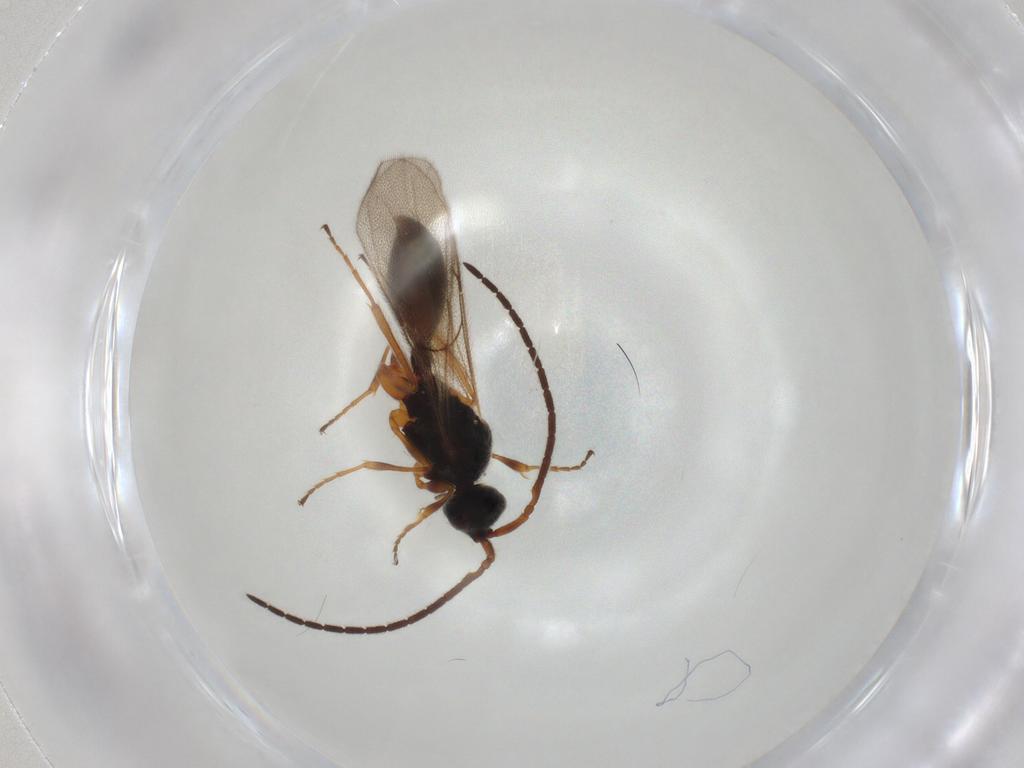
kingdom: Animalia
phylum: Arthropoda
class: Insecta
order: Hymenoptera
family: Diapriidae
